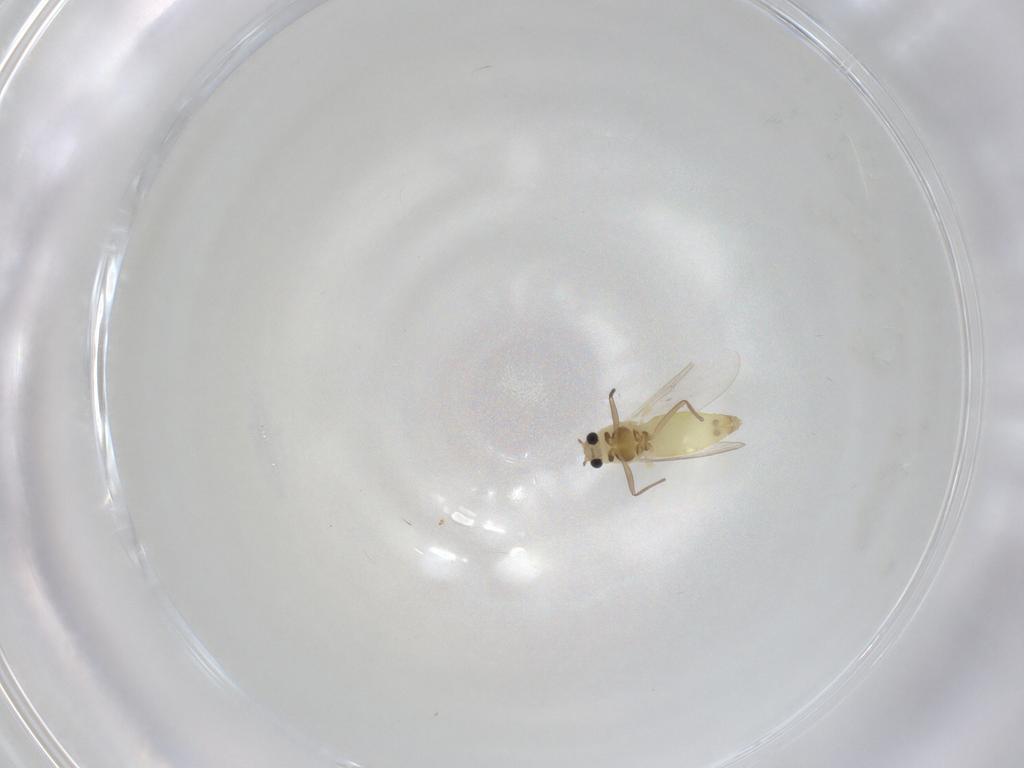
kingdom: Animalia
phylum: Arthropoda
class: Insecta
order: Diptera
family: Chironomidae
